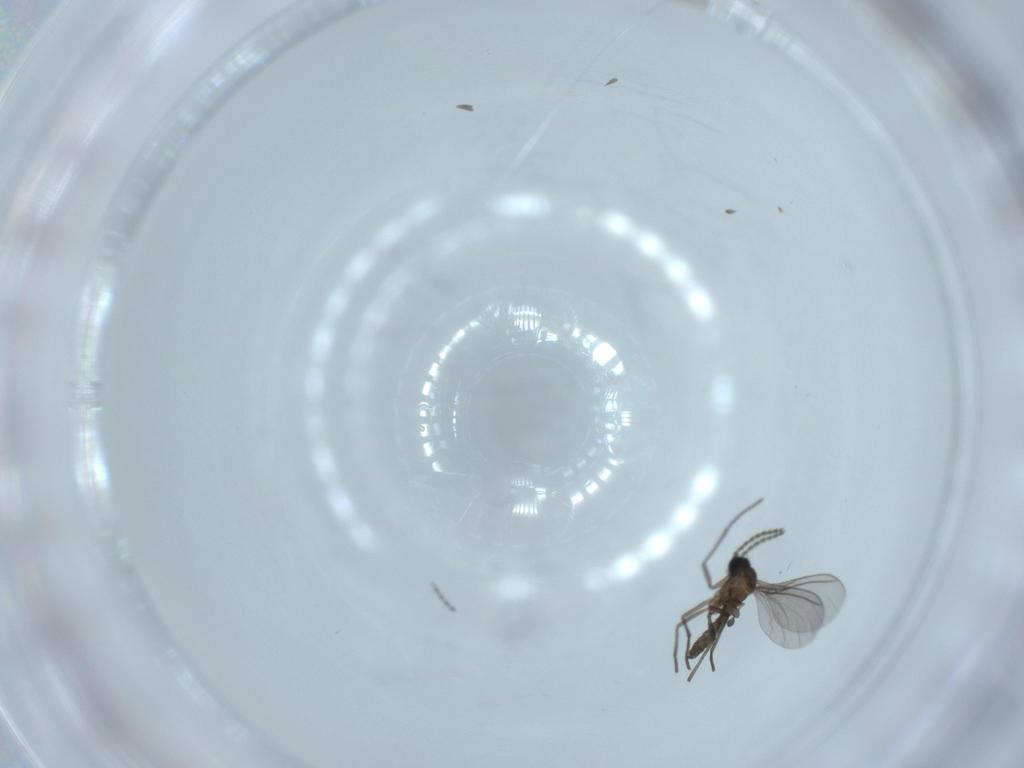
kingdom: Animalia
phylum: Arthropoda
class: Insecta
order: Diptera
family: Sciaridae
